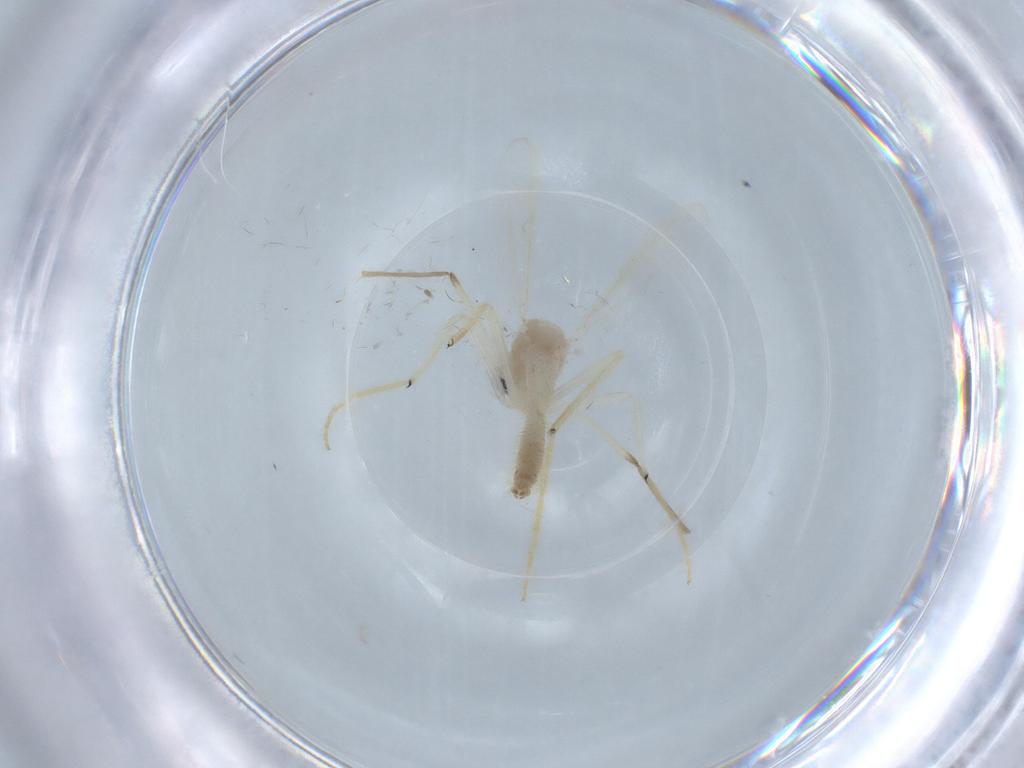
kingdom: Animalia
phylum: Arthropoda
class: Insecta
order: Diptera
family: Chironomidae
